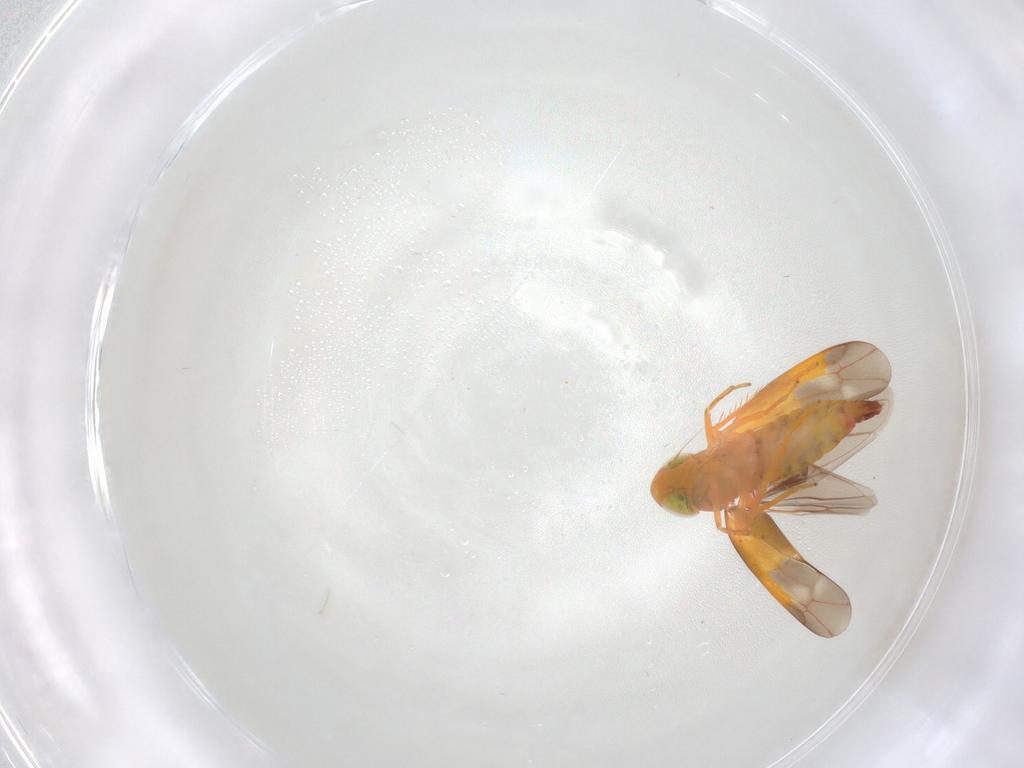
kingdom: Animalia
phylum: Arthropoda
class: Insecta
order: Hemiptera
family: Cicadellidae
